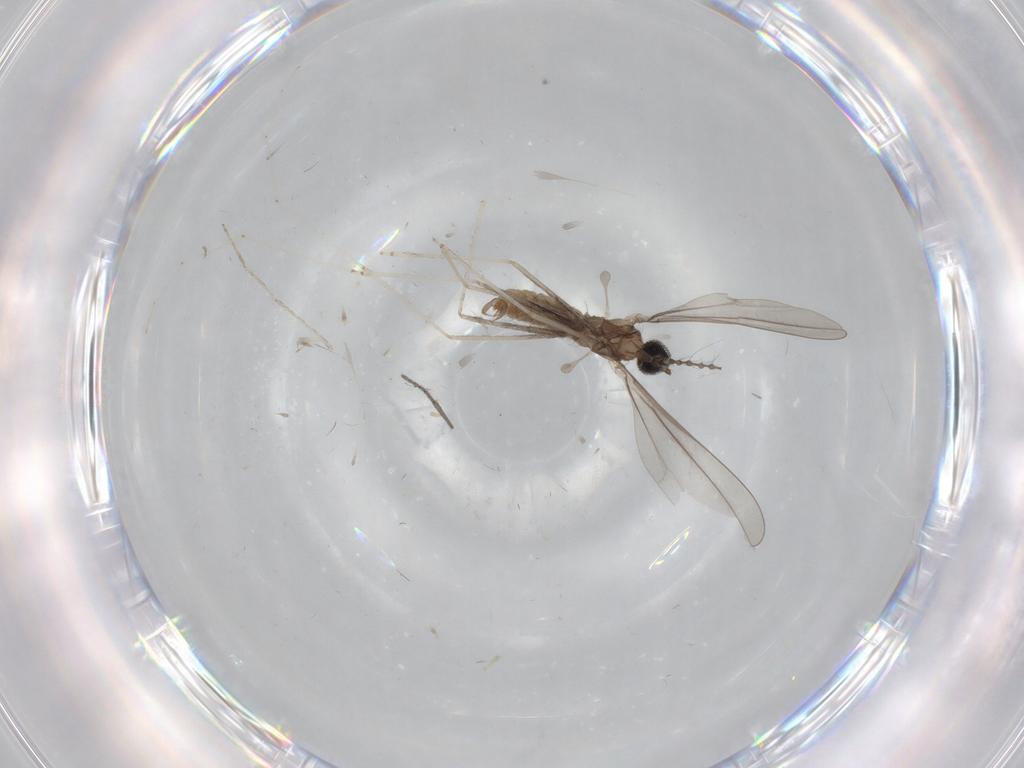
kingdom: Animalia
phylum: Arthropoda
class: Insecta
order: Diptera
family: Cecidomyiidae
